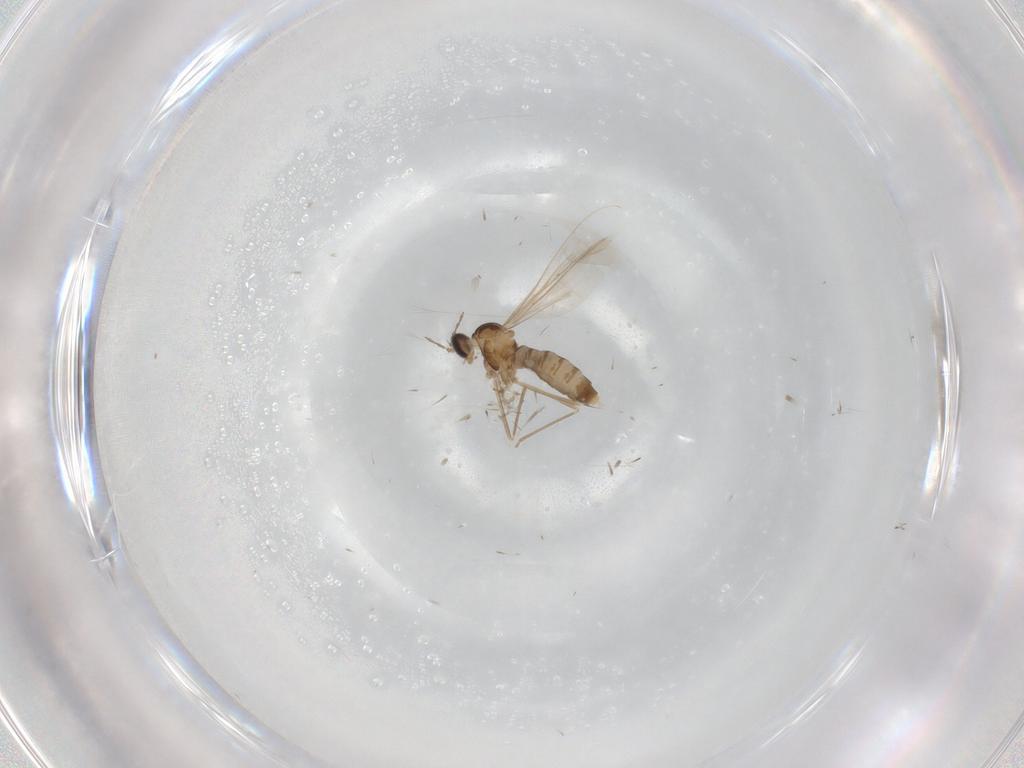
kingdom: Animalia
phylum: Arthropoda
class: Insecta
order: Diptera
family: Cecidomyiidae
